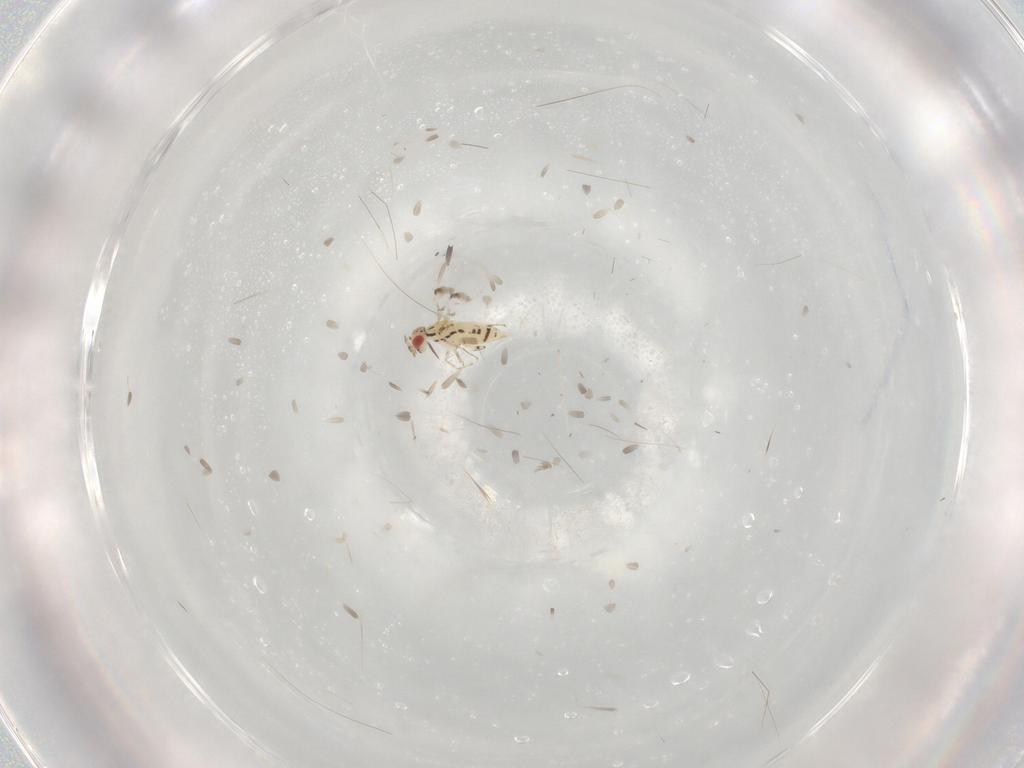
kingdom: Animalia
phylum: Arthropoda
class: Insecta
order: Hymenoptera
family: Trichogrammatidae
